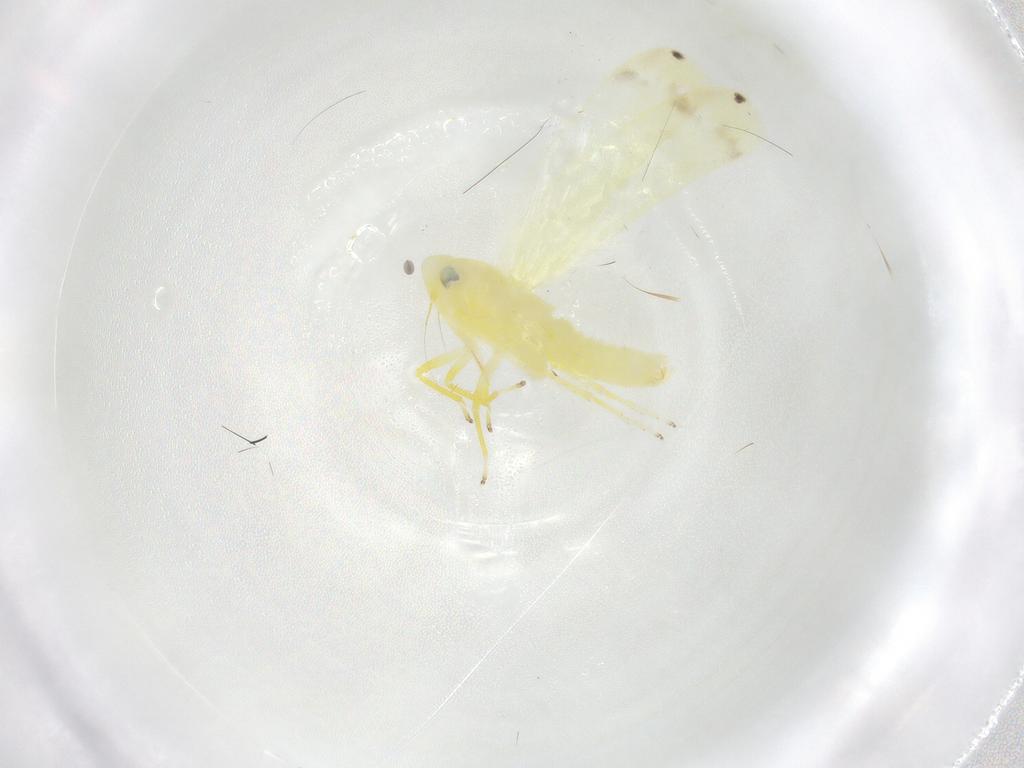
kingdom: Animalia
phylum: Arthropoda
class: Insecta
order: Hemiptera
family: Cicadellidae
